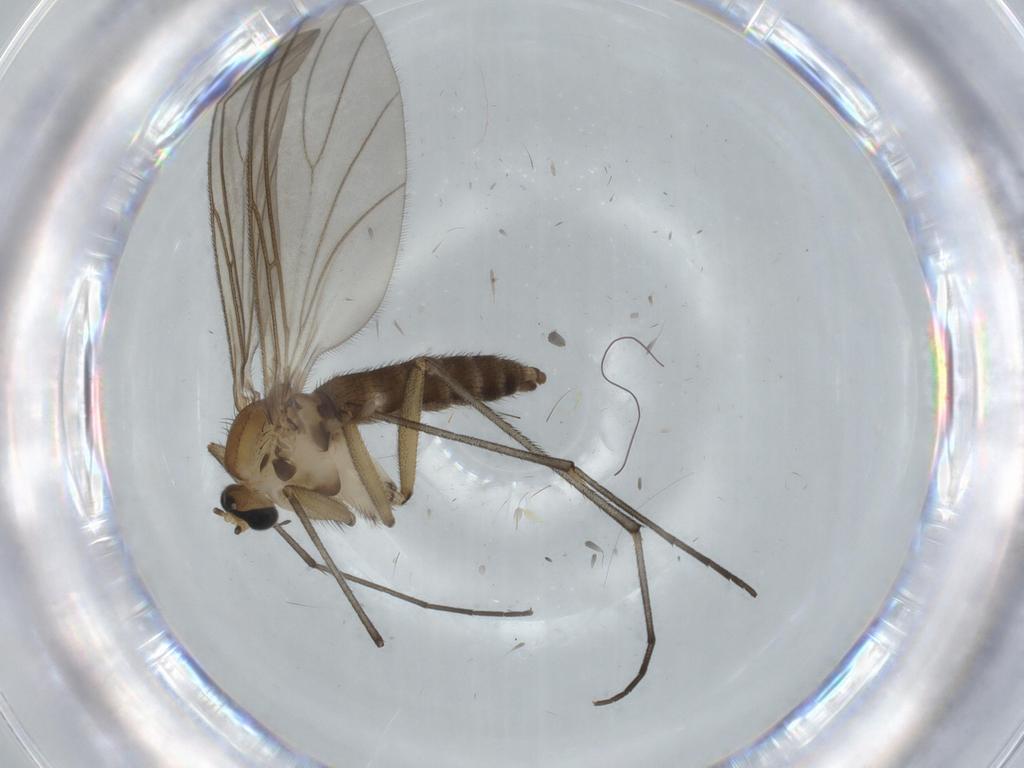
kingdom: Animalia
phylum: Arthropoda
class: Insecta
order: Diptera
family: Sciaridae
